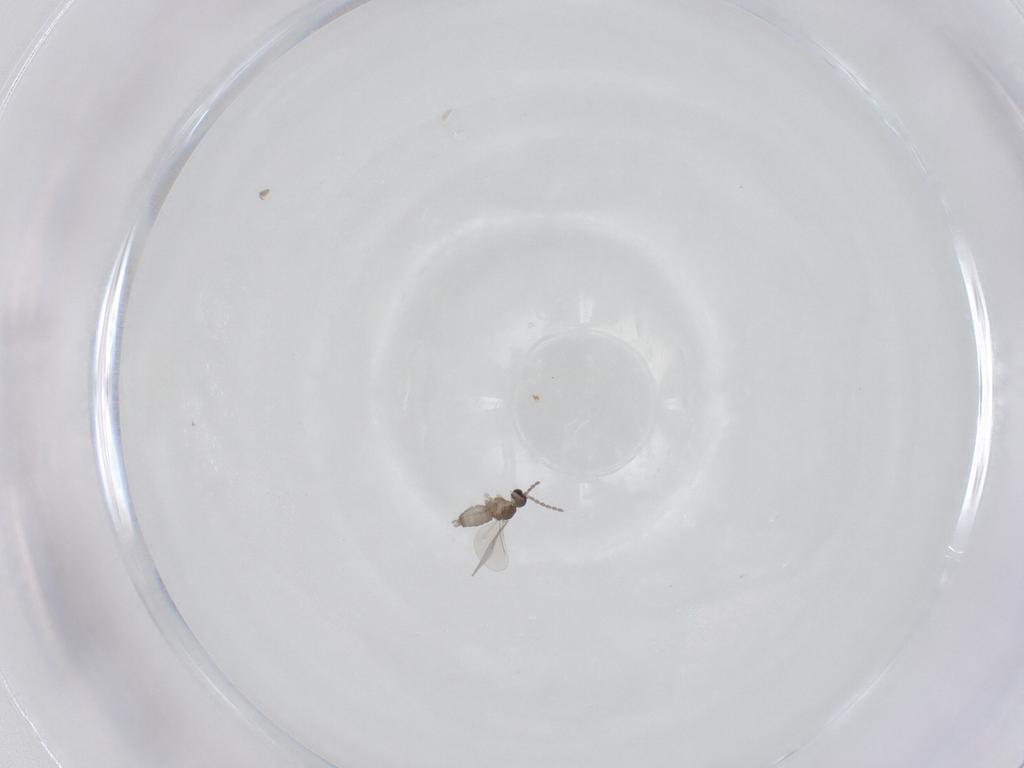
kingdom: Animalia
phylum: Arthropoda
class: Insecta
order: Diptera
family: Cecidomyiidae
